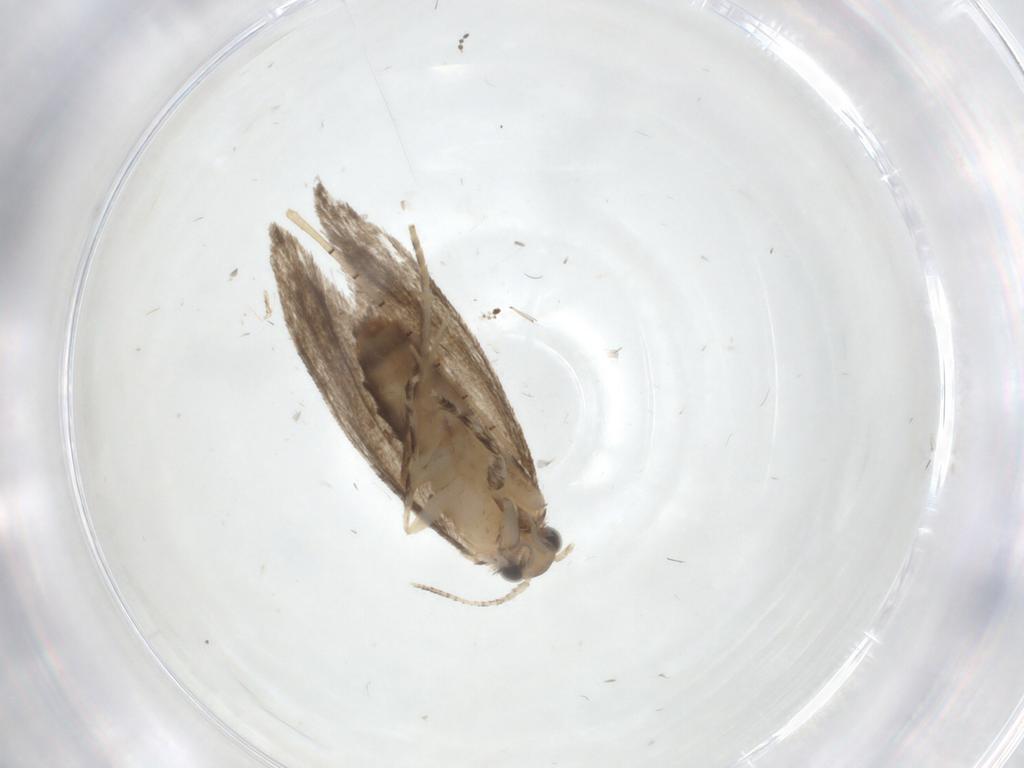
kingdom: Animalia
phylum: Arthropoda
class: Insecta
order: Lepidoptera
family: Tineidae
